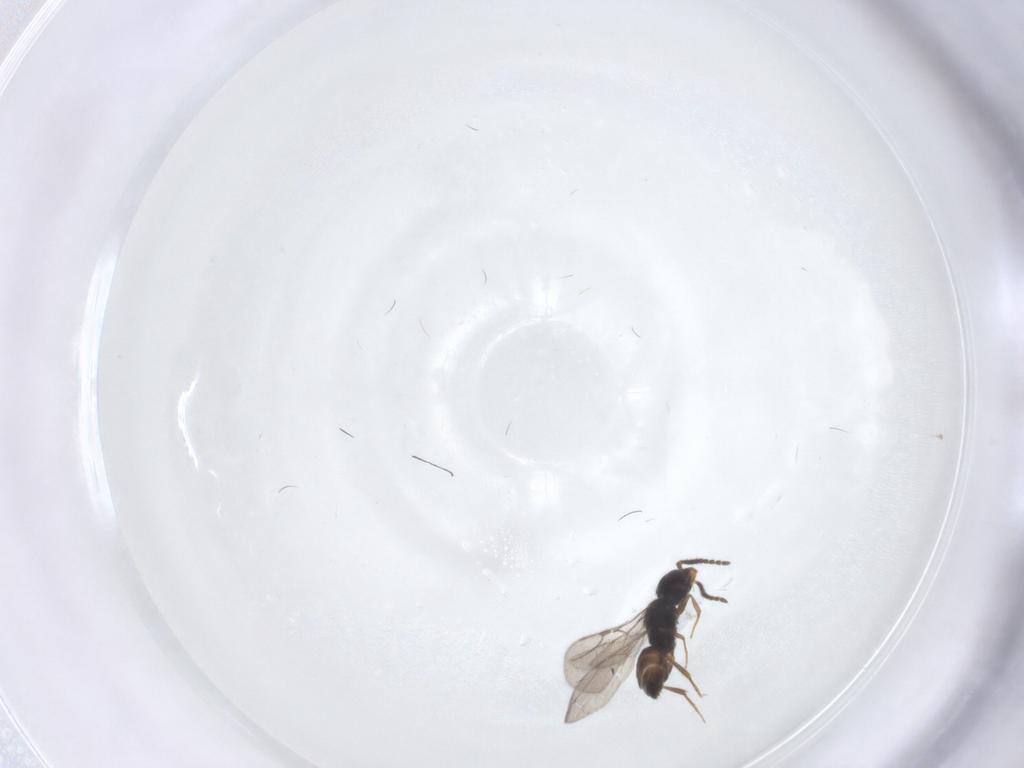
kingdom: Animalia
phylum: Arthropoda
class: Insecta
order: Hymenoptera
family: Bethylidae
